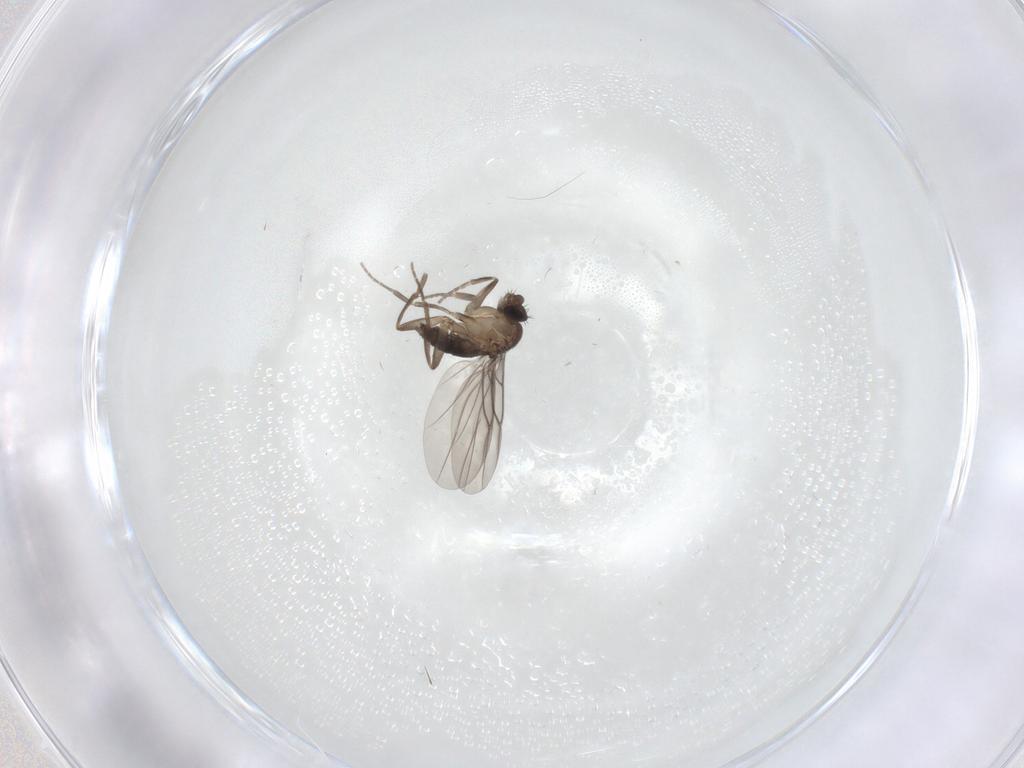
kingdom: Animalia
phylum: Arthropoda
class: Insecta
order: Diptera
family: Phoridae
